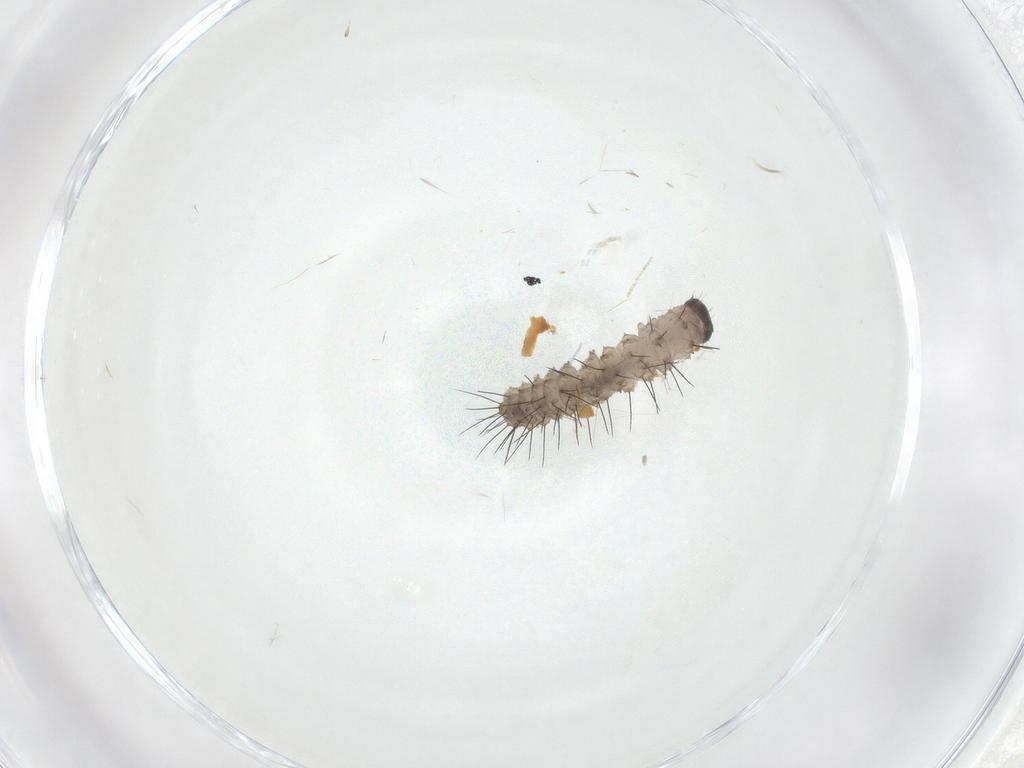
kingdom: Animalia
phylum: Arthropoda
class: Insecta
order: Lepidoptera
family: Erebidae
